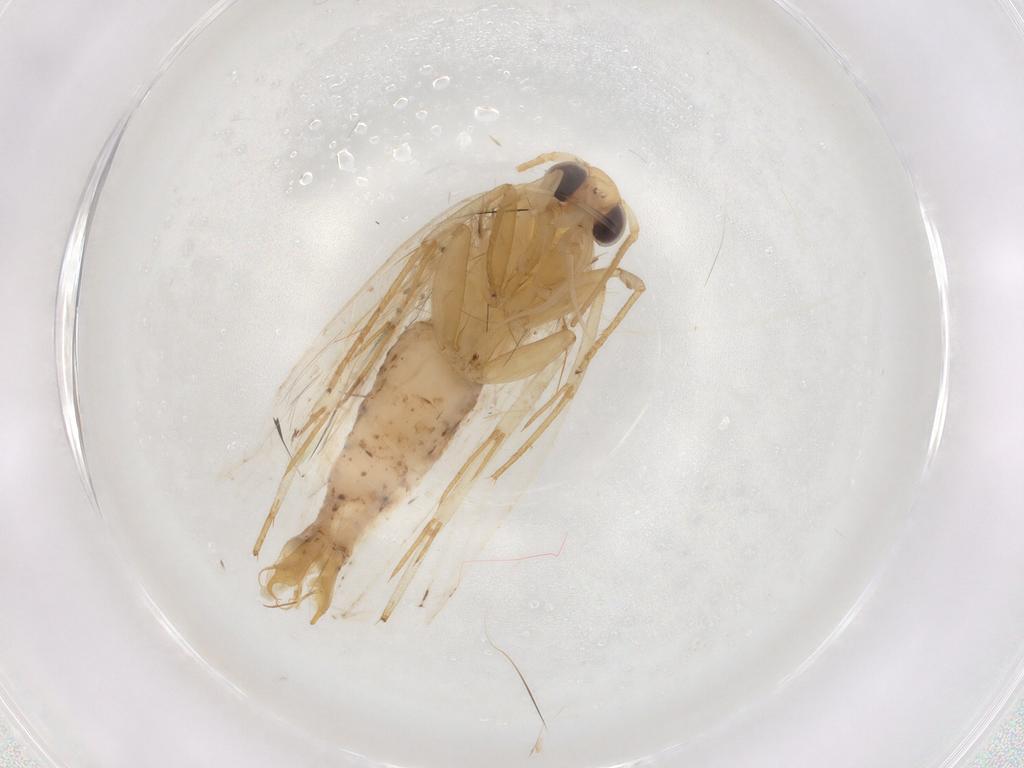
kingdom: Animalia
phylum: Arthropoda
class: Insecta
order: Lepidoptera
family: Depressariidae
